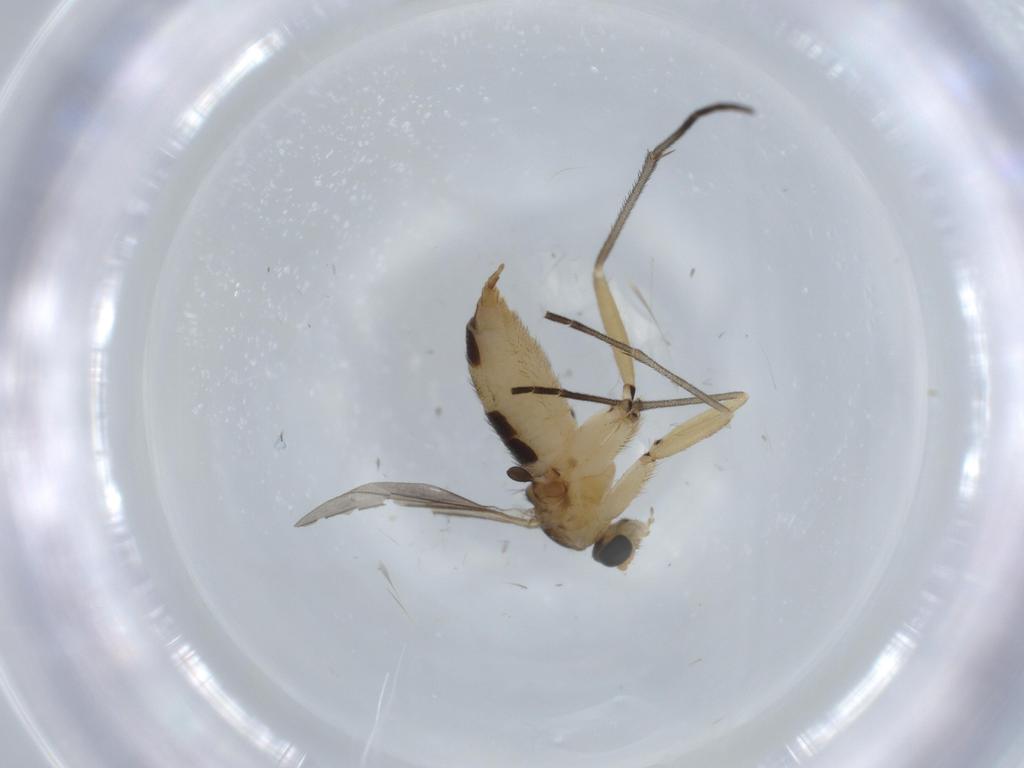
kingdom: Animalia
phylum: Arthropoda
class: Insecta
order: Diptera
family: Sciaridae
